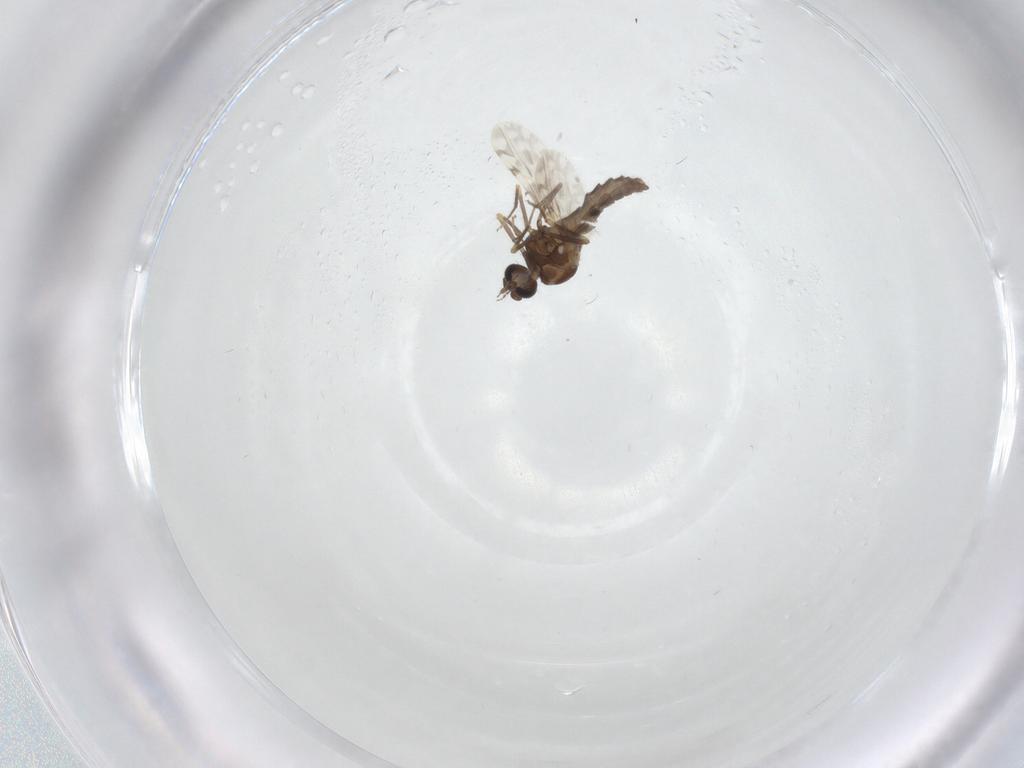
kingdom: Animalia
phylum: Arthropoda
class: Insecta
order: Diptera
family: Ceratopogonidae
